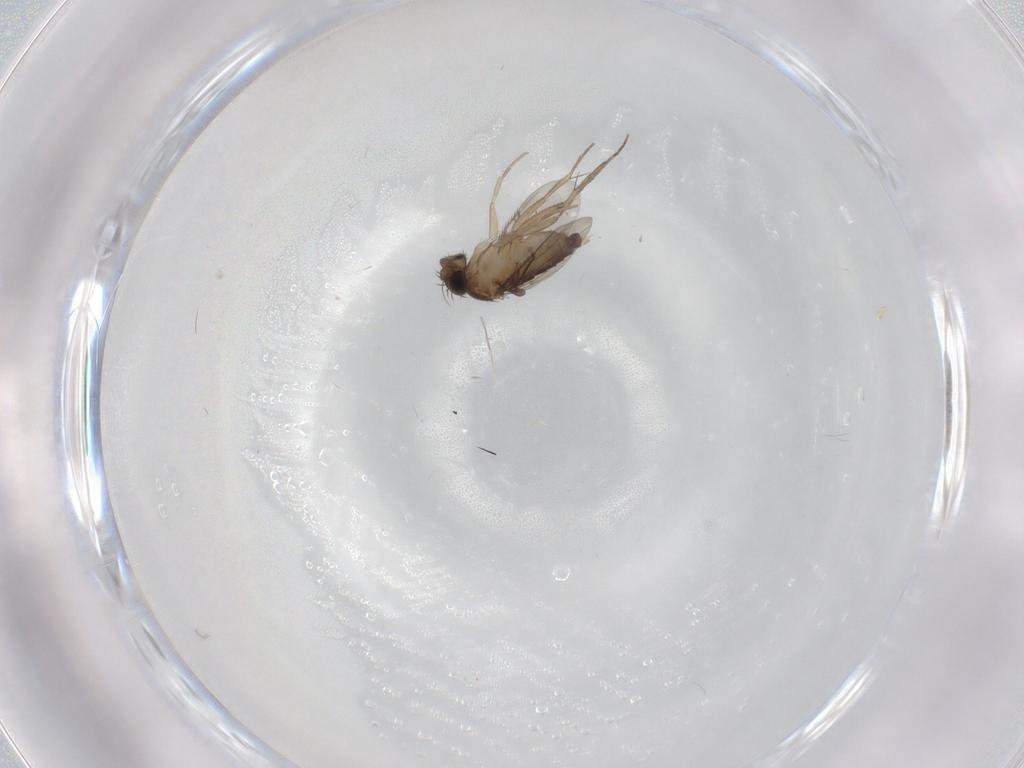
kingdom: Animalia
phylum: Arthropoda
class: Insecta
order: Diptera
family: Phoridae
